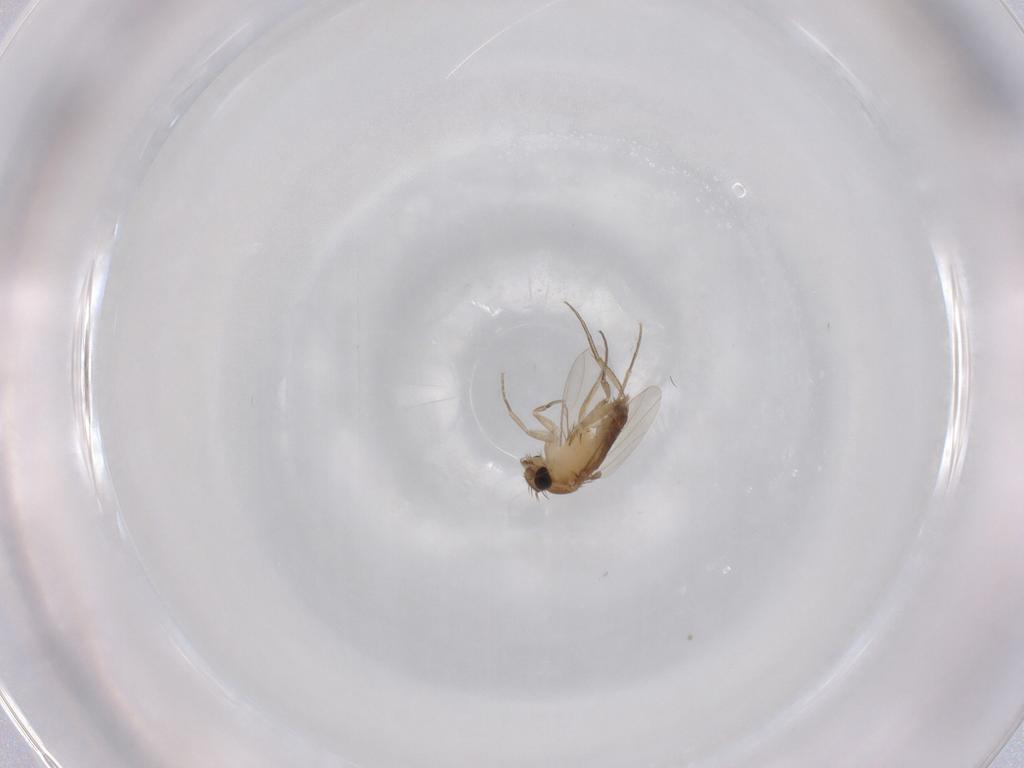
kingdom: Animalia
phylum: Arthropoda
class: Insecta
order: Diptera
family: Phoridae
